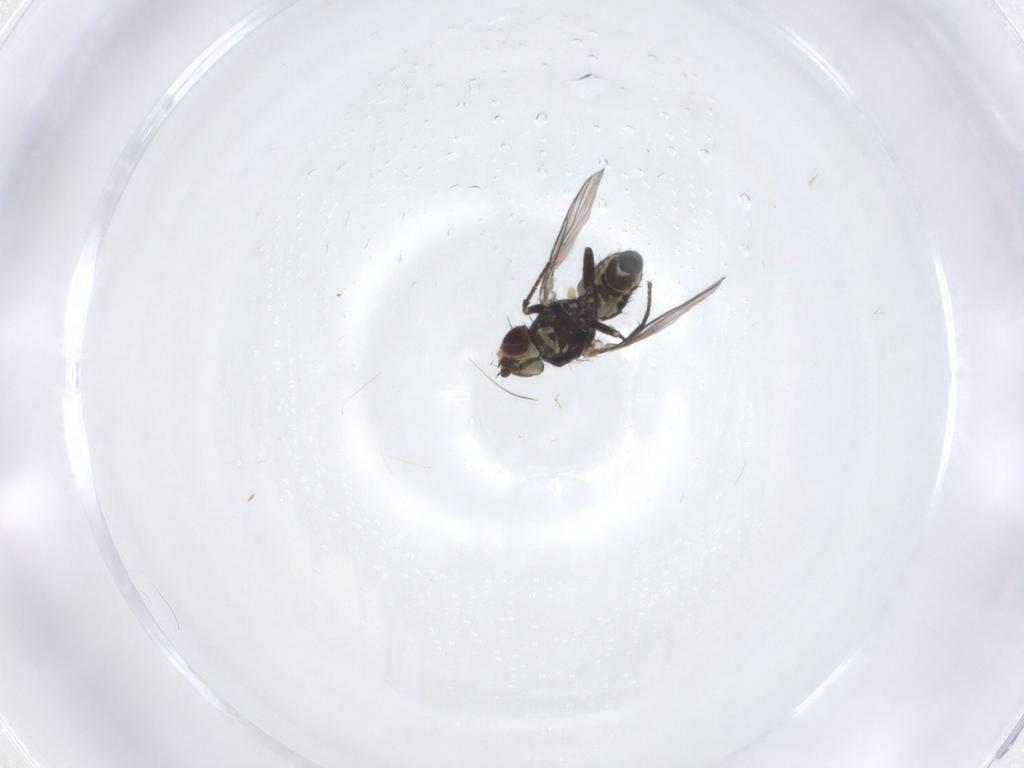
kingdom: Animalia
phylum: Arthropoda
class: Insecta
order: Diptera
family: Agromyzidae
